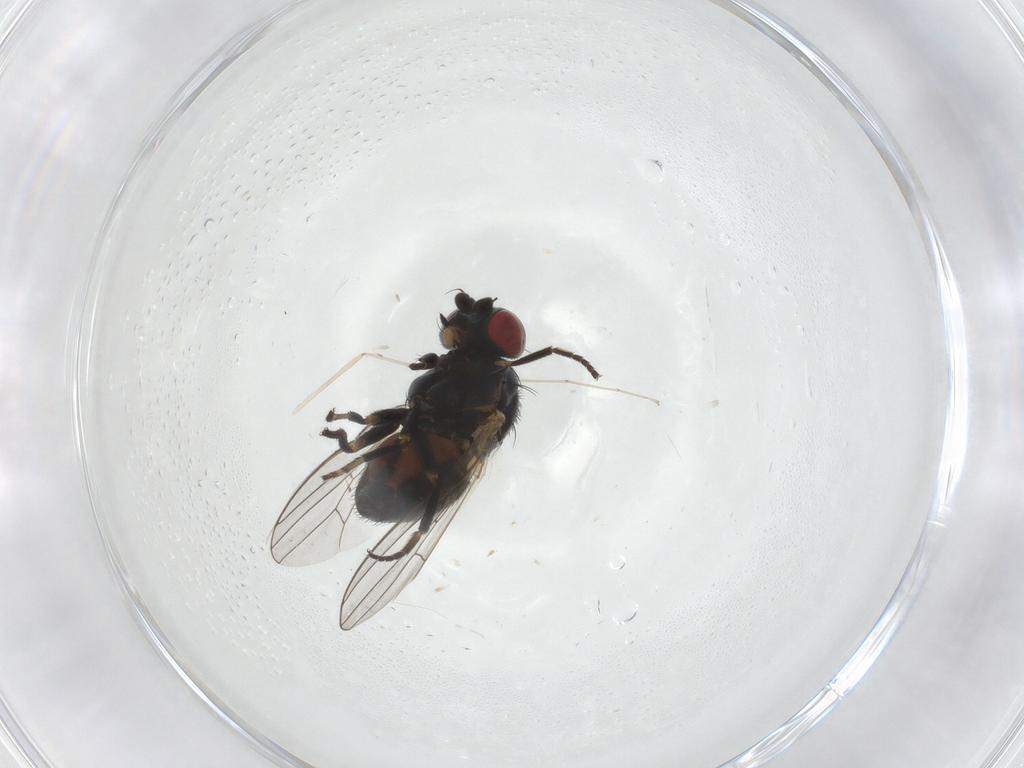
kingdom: Animalia
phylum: Arthropoda
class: Insecta
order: Diptera
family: Chamaemyiidae
